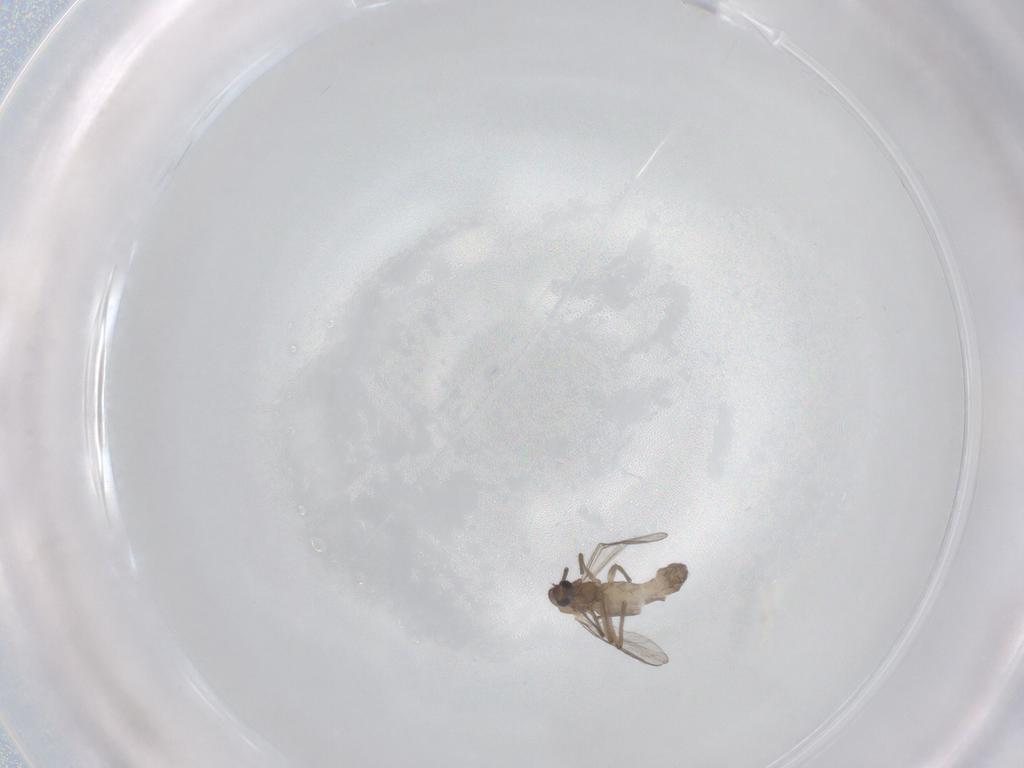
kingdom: Animalia
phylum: Arthropoda
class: Insecta
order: Diptera
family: Chironomidae
